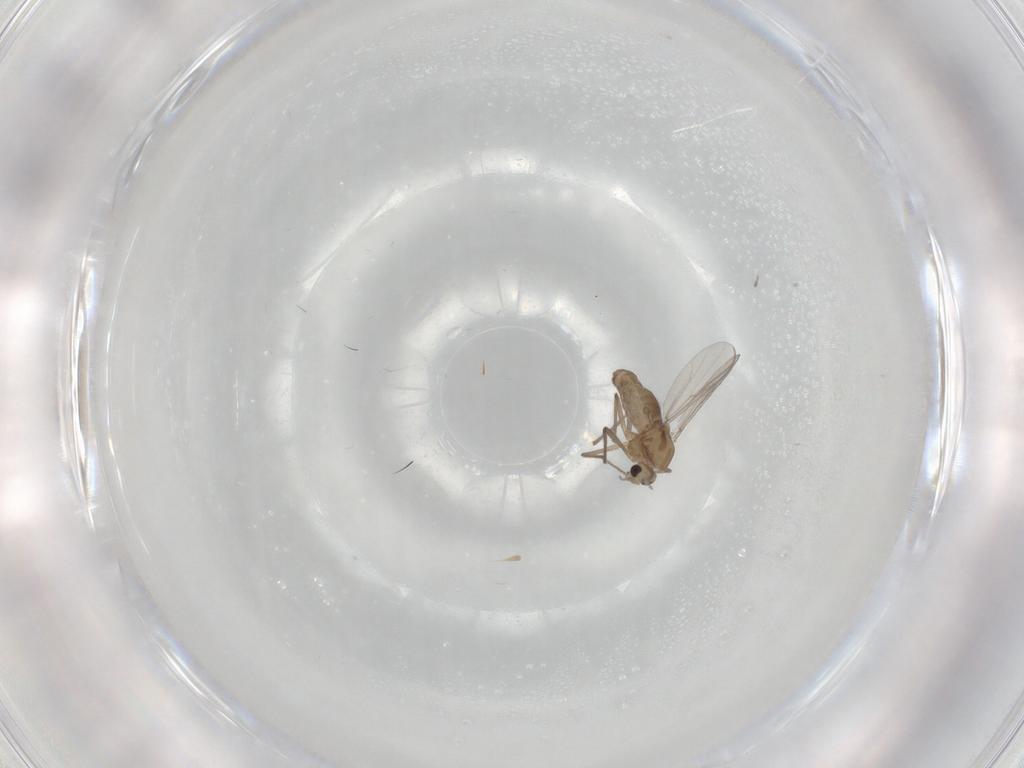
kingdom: Animalia
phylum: Arthropoda
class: Insecta
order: Diptera
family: Chironomidae
